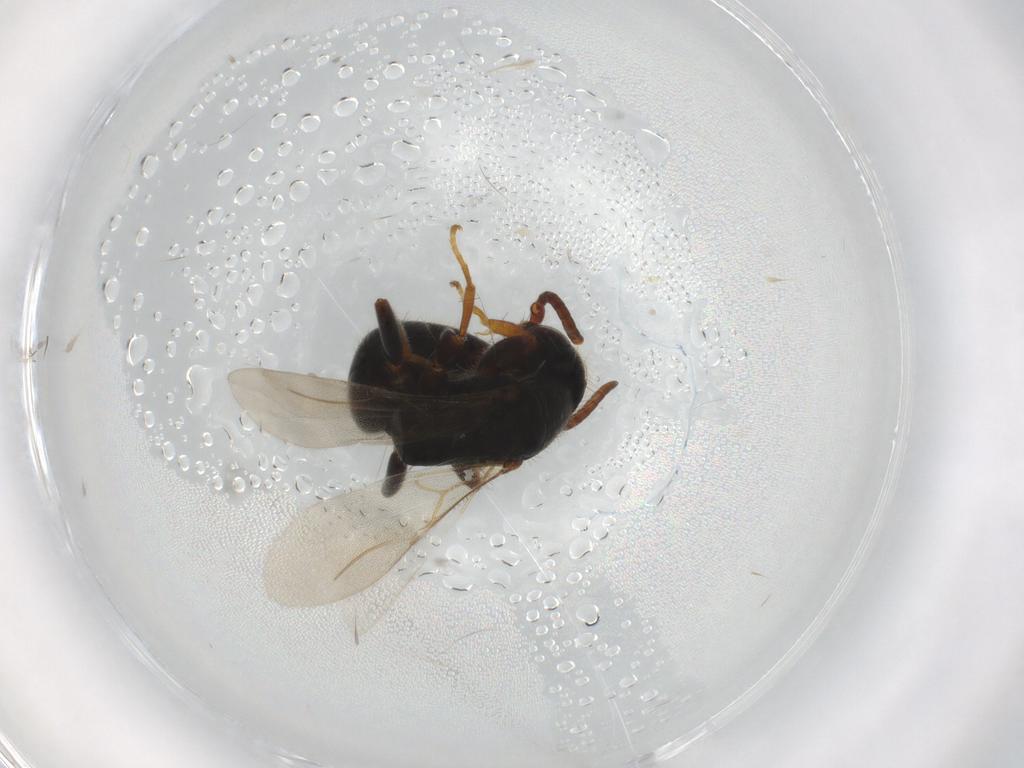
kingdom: Animalia
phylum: Arthropoda
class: Insecta
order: Hymenoptera
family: Bethylidae
